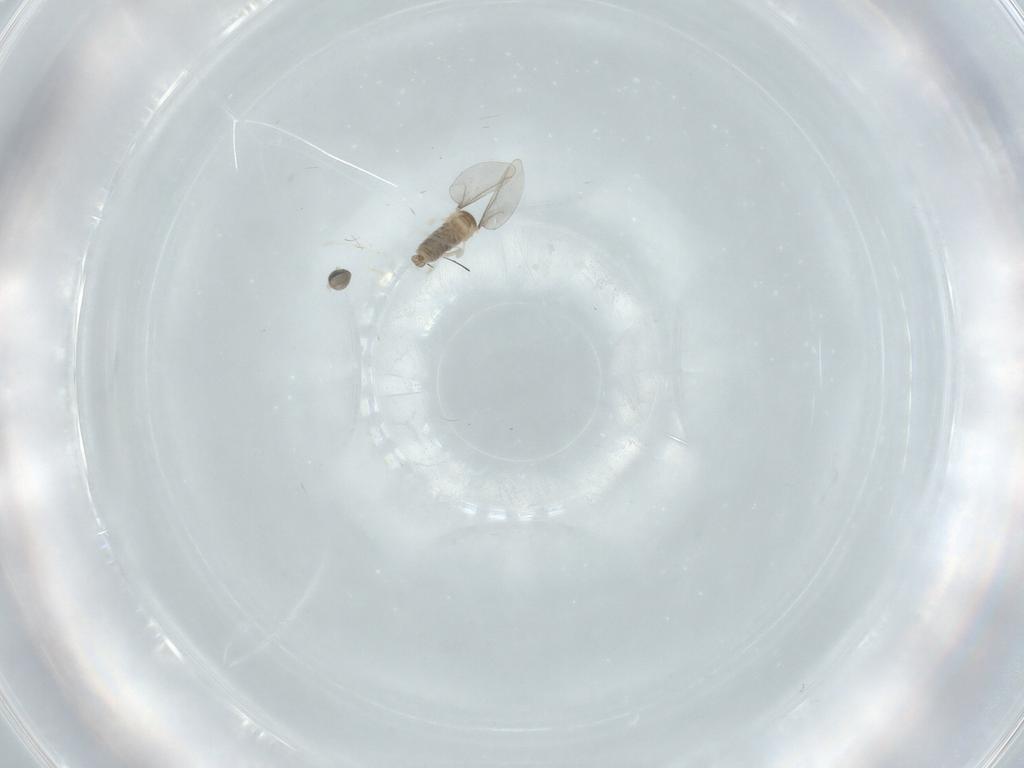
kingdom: Animalia
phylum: Arthropoda
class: Insecta
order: Diptera
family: Cecidomyiidae
